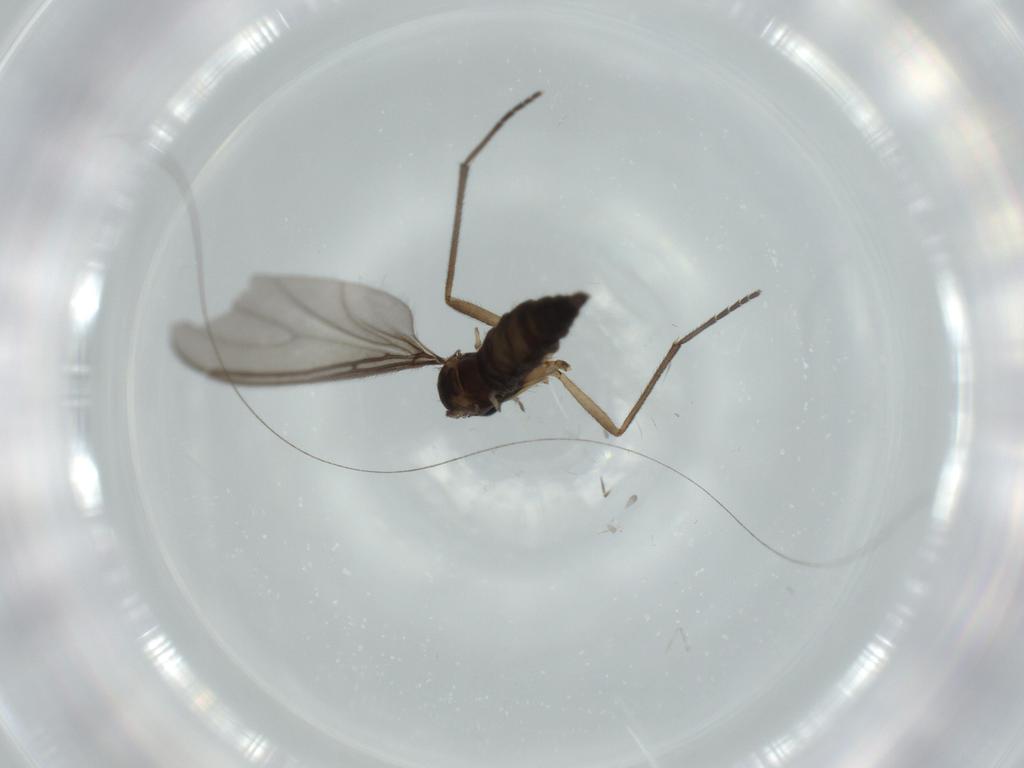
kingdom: Animalia
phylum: Arthropoda
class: Insecta
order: Diptera
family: Sciaridae
